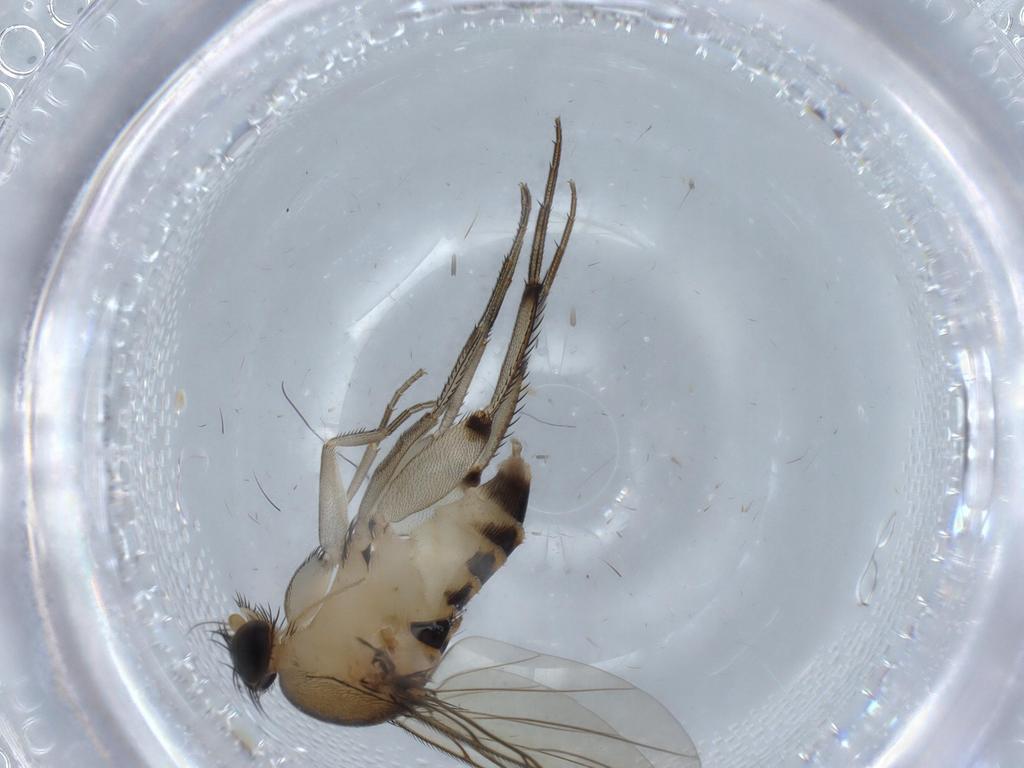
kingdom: Animalia
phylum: Arthropoda
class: Insecta
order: Diptera
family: Phoridae
